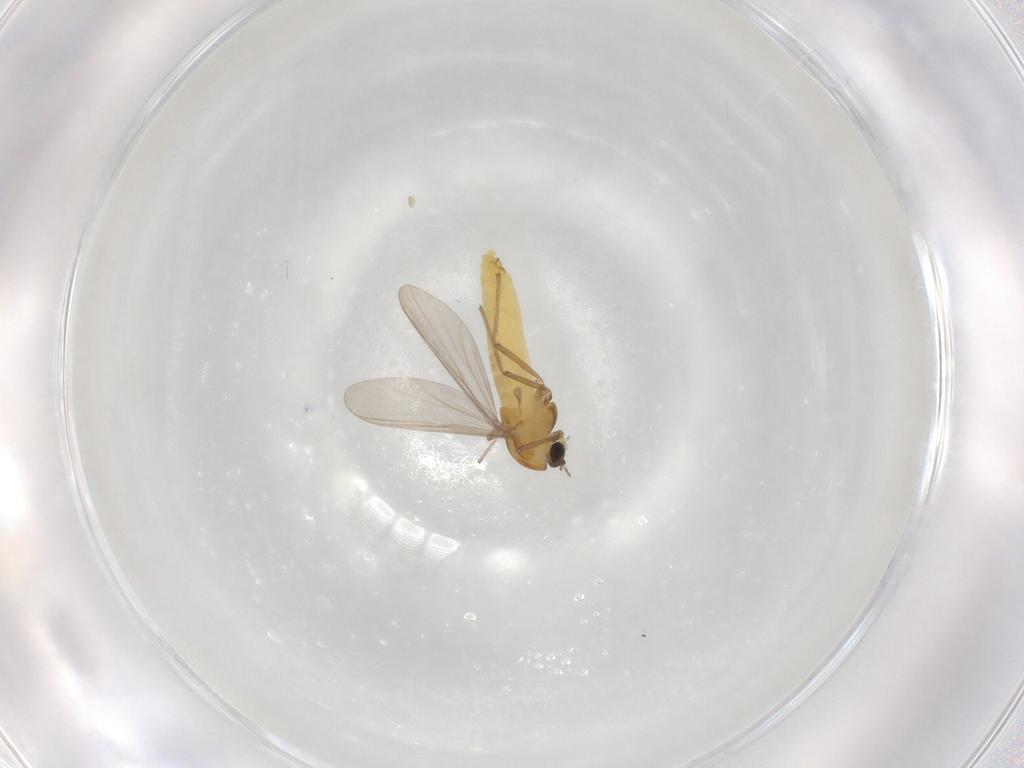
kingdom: Animalia
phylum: Arthropoda
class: Insecta
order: Diptera
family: Chironomidae
